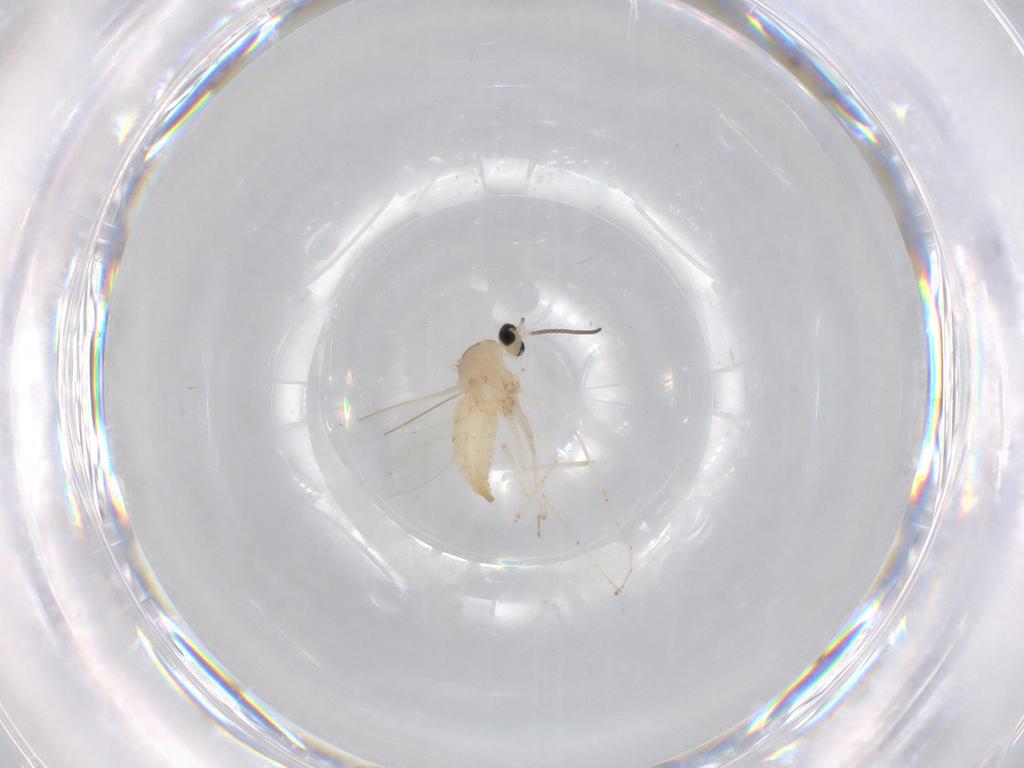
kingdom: Animalia
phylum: Arthropoda
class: Insecta
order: Diptera
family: Cecidomyiidae
